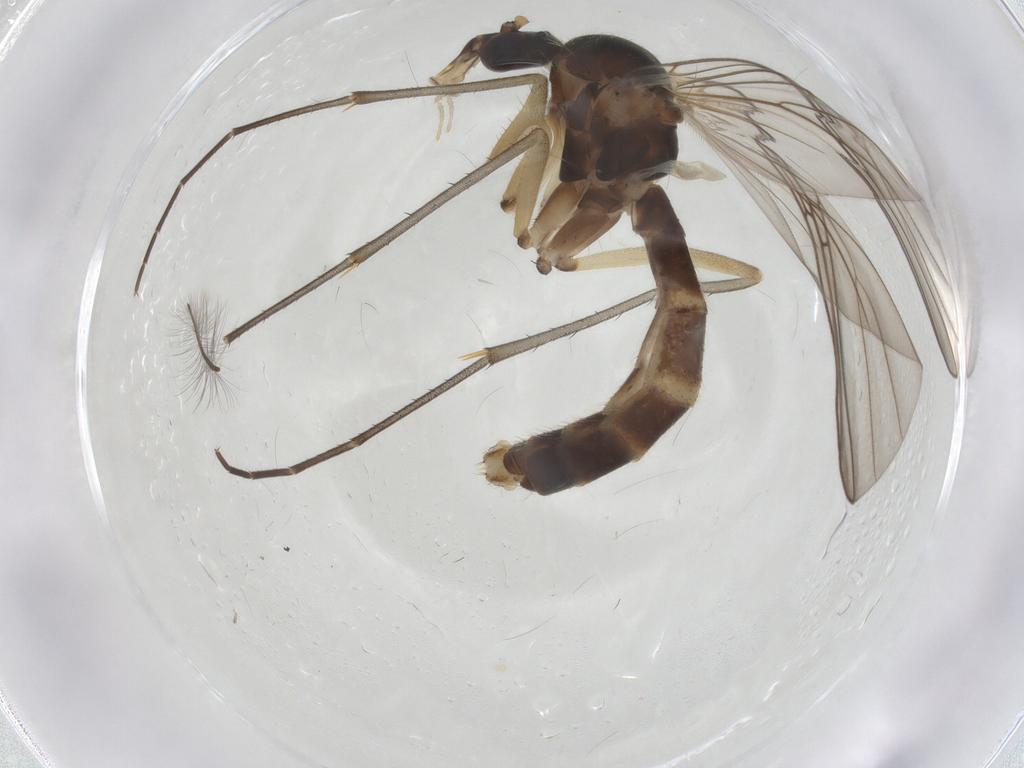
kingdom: Animalia
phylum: Arthropoda
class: Insecta
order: Diptera
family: Mycetophilidae
